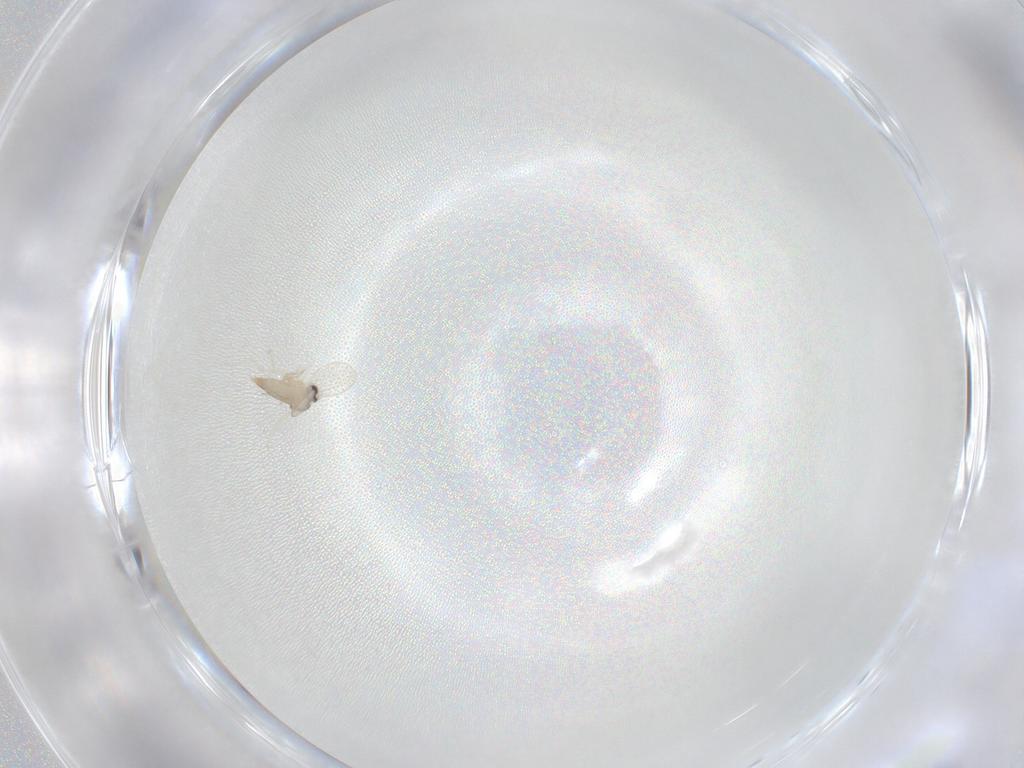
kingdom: Animalia
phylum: Arthropoda
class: Insecta
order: Diptera
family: Cecidomyiidae
